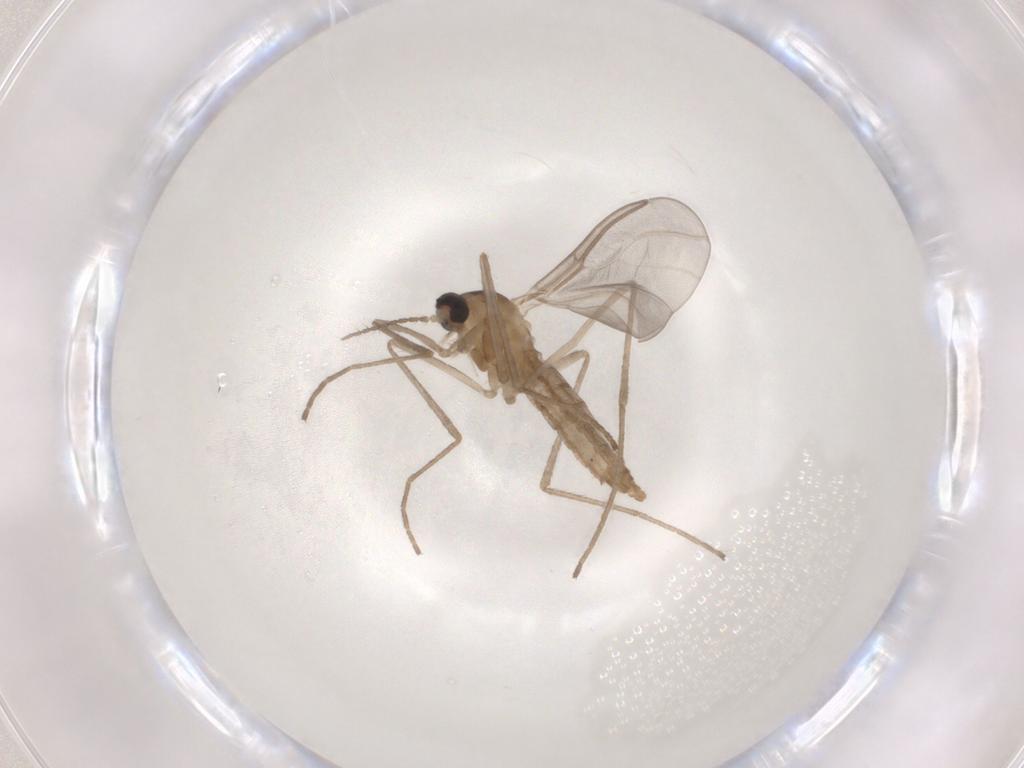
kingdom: Animalia
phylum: Arthropoda
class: Insecta
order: Diptera
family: Cecidomyiidae
